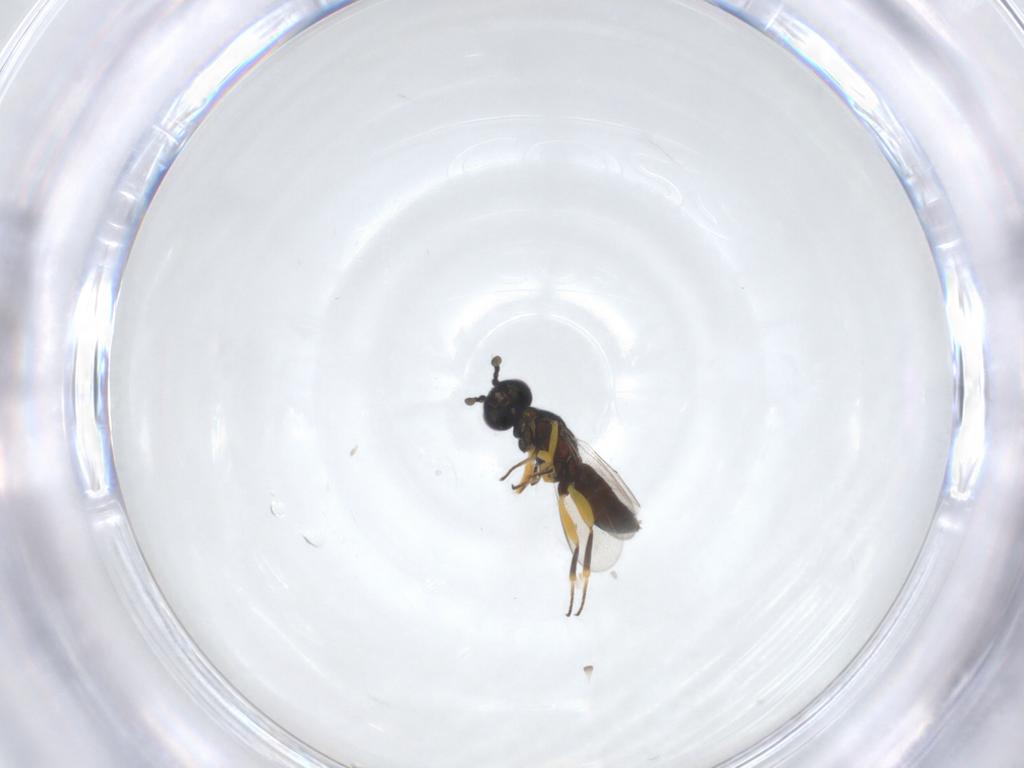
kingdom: Animalia
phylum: Arthropoda
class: Insecta
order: Hymenoptera
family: Eupelmidae
